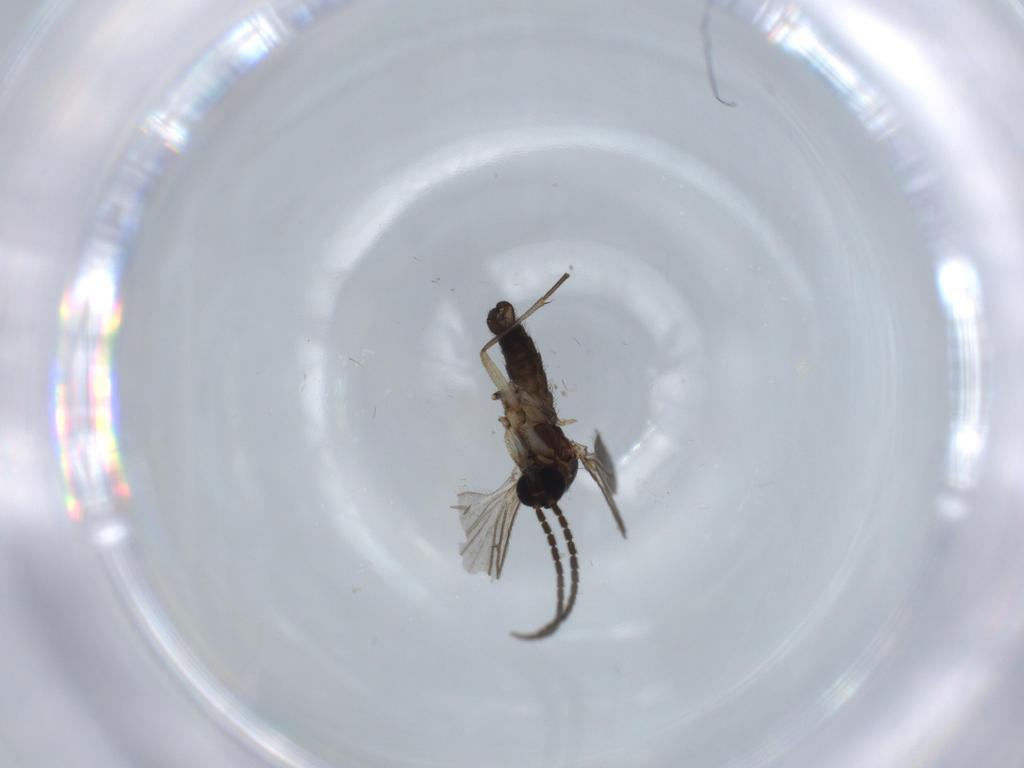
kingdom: Animalia
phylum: Arthropoda
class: Insecta
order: Diptera
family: Sciaridae
